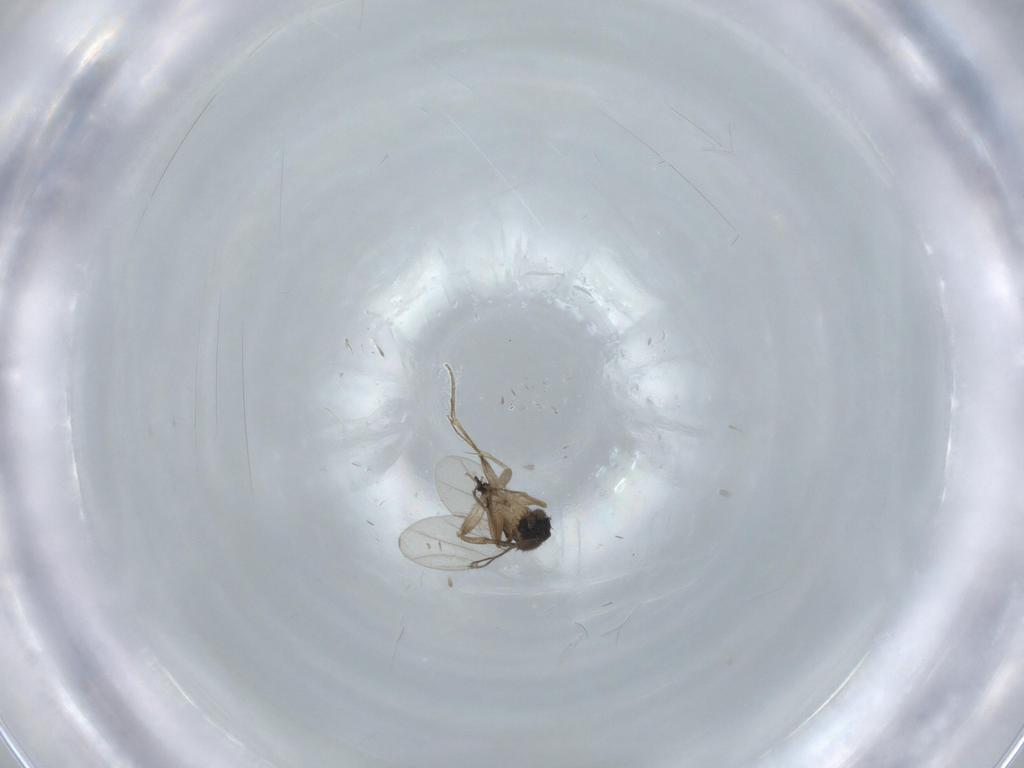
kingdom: Animalia
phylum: Arthropoda
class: Insecta
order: Diptera
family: Phoridae
